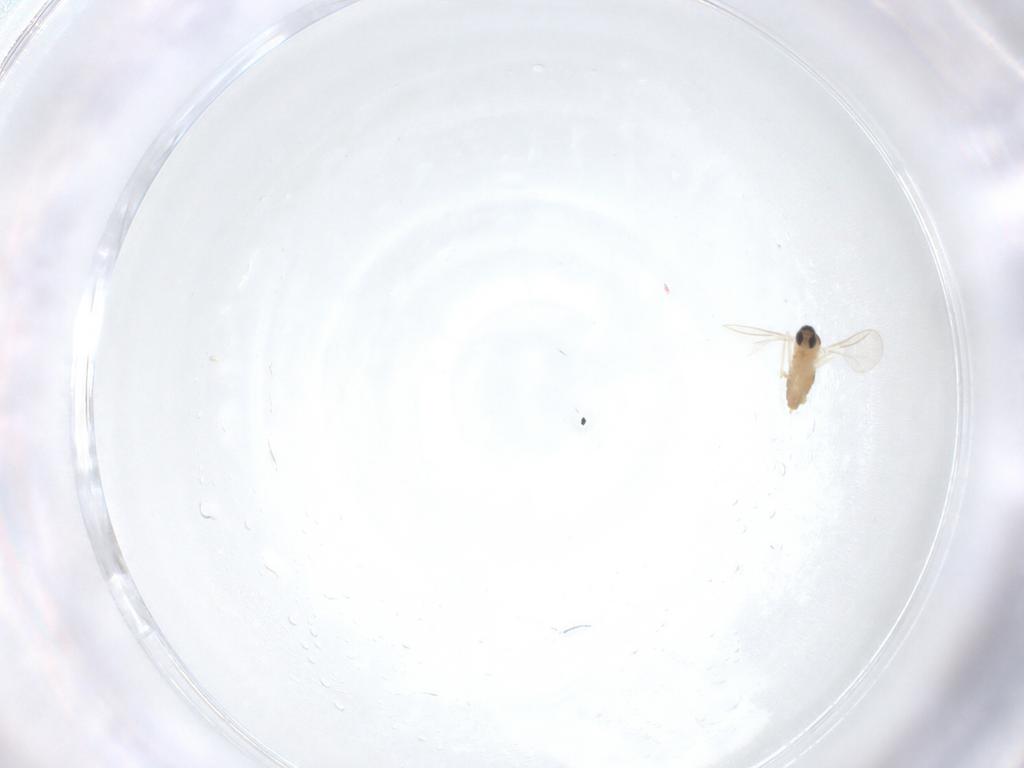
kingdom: Animalia
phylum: Arthropoda
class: Insecta
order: Diptera
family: Cecidomyiidae
